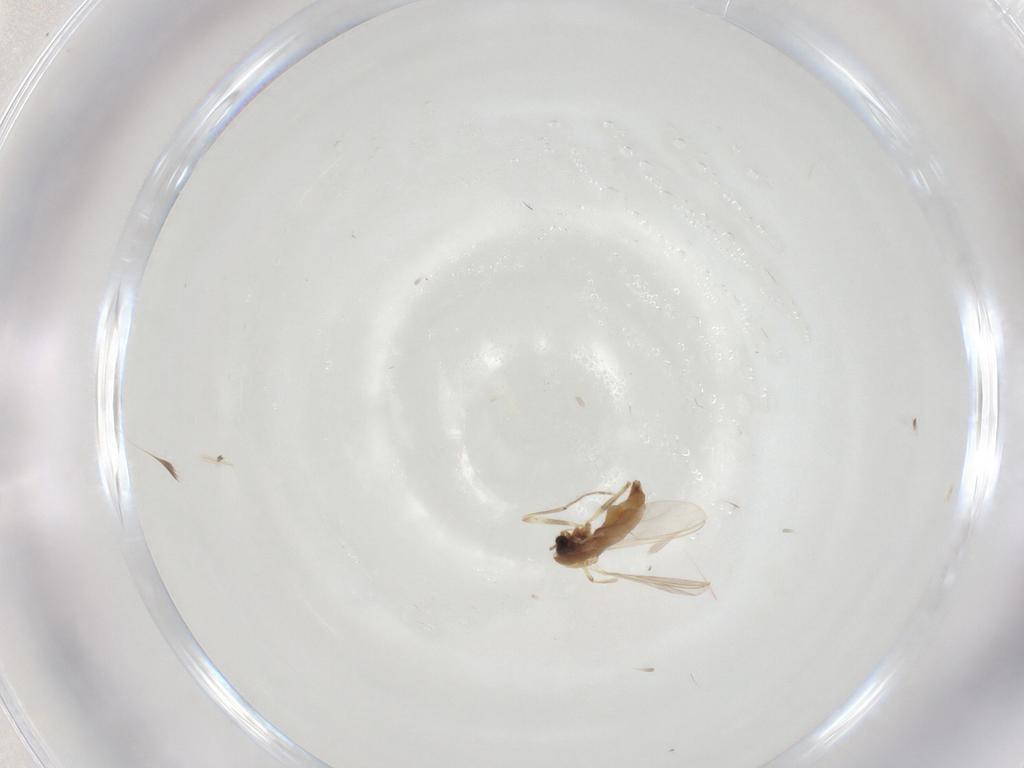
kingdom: Animalia
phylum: Arthropoda
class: Insecta
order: Diptera
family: Chironomidae
